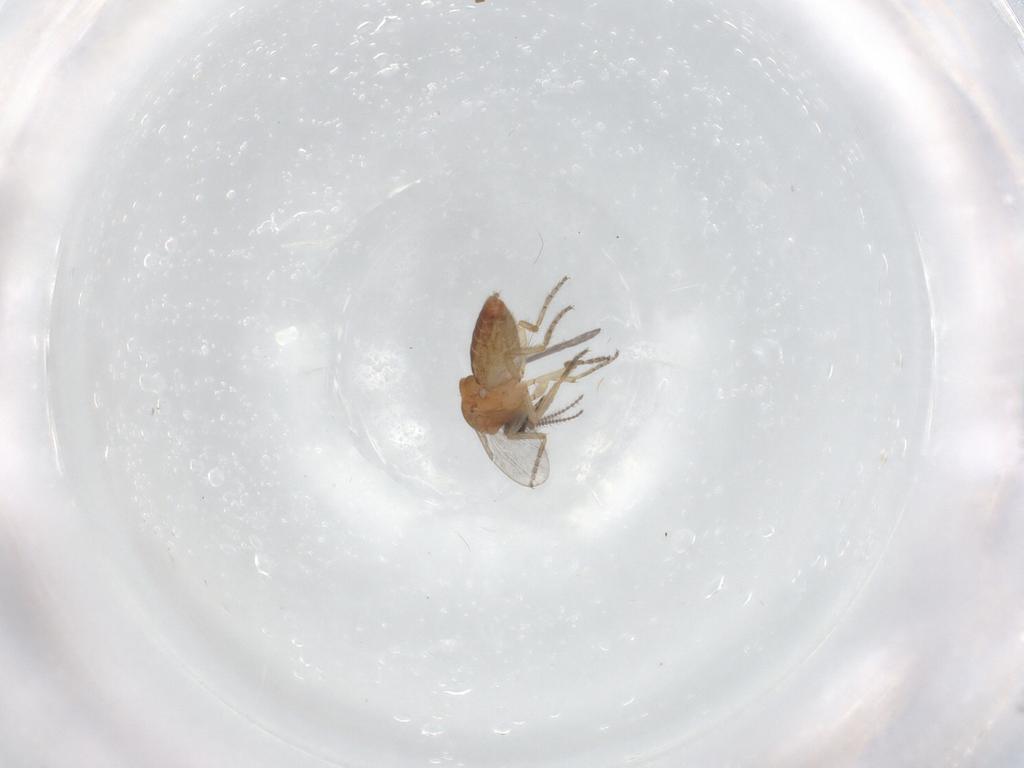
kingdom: Animalia
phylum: Arthropoda
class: Insecta
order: Diptera
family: Ceratopogonidae
